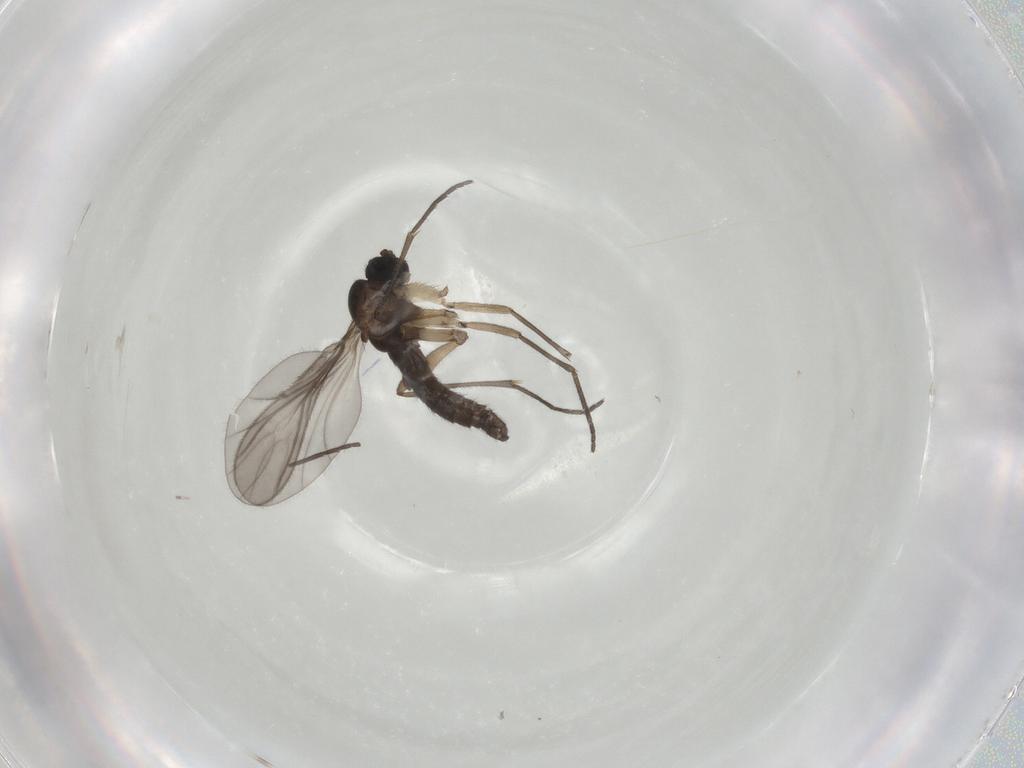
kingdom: Animalia
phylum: Arthropoda
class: Insecta
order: Diptera
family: Sciaridae
